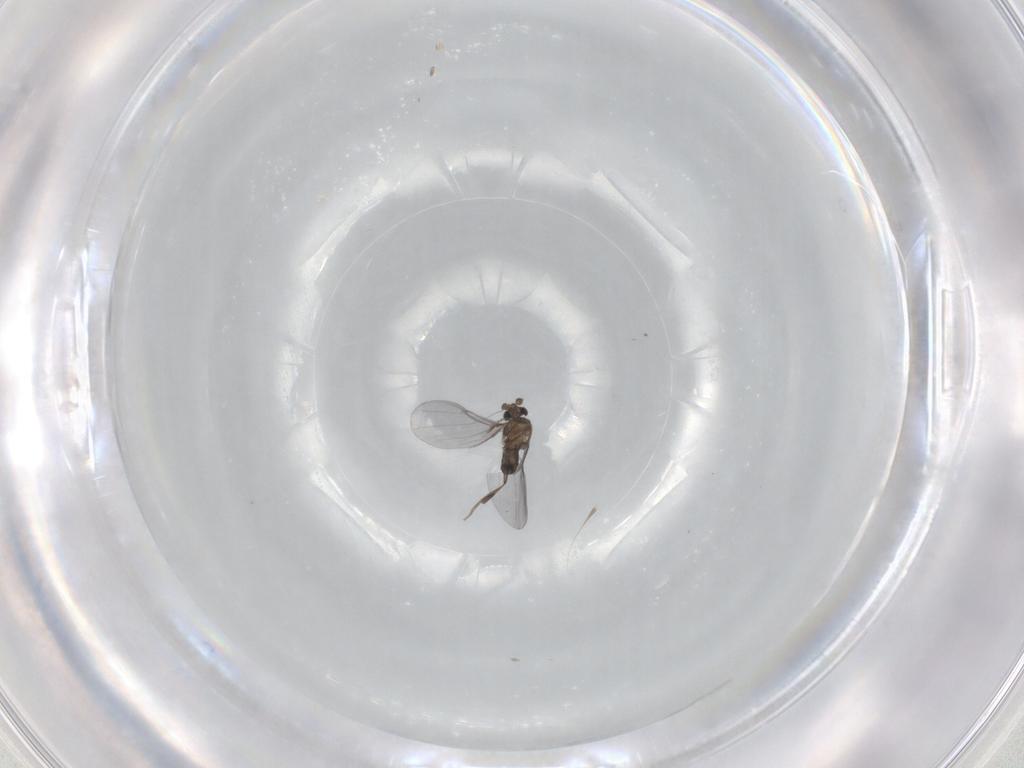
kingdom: Animalia
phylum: Arthropoda
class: Insecta
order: Diptera
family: Phoridae
